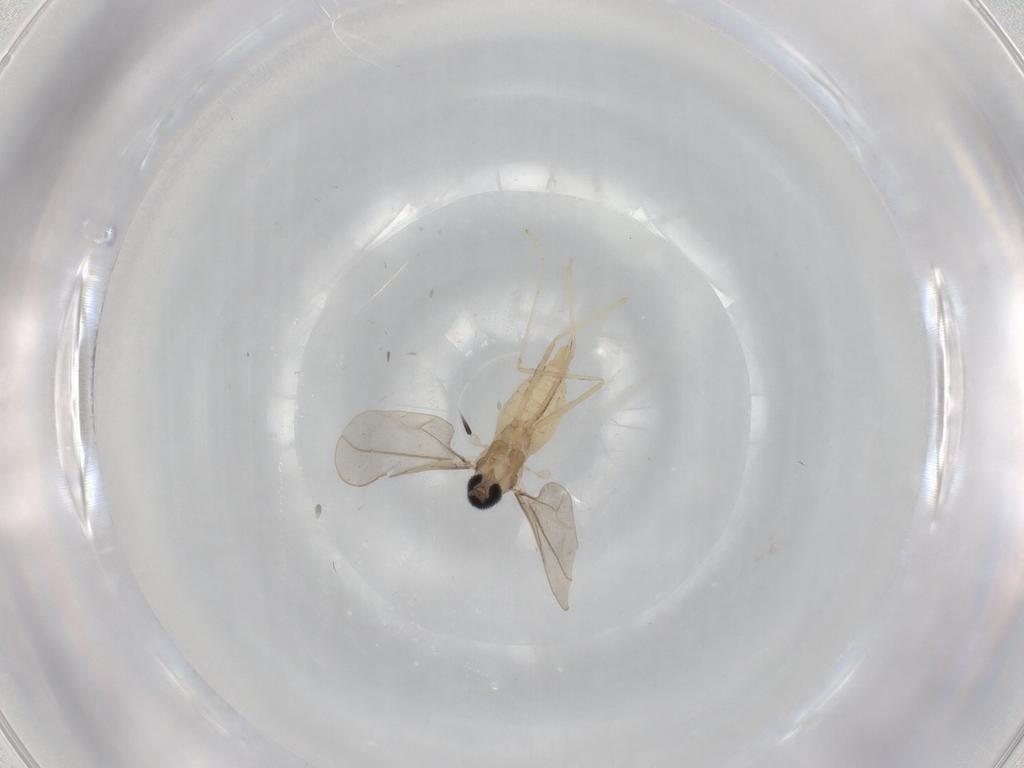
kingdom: Animalia
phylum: Arthropoda
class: Insecta
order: Diptera
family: Cecidomyiidae
